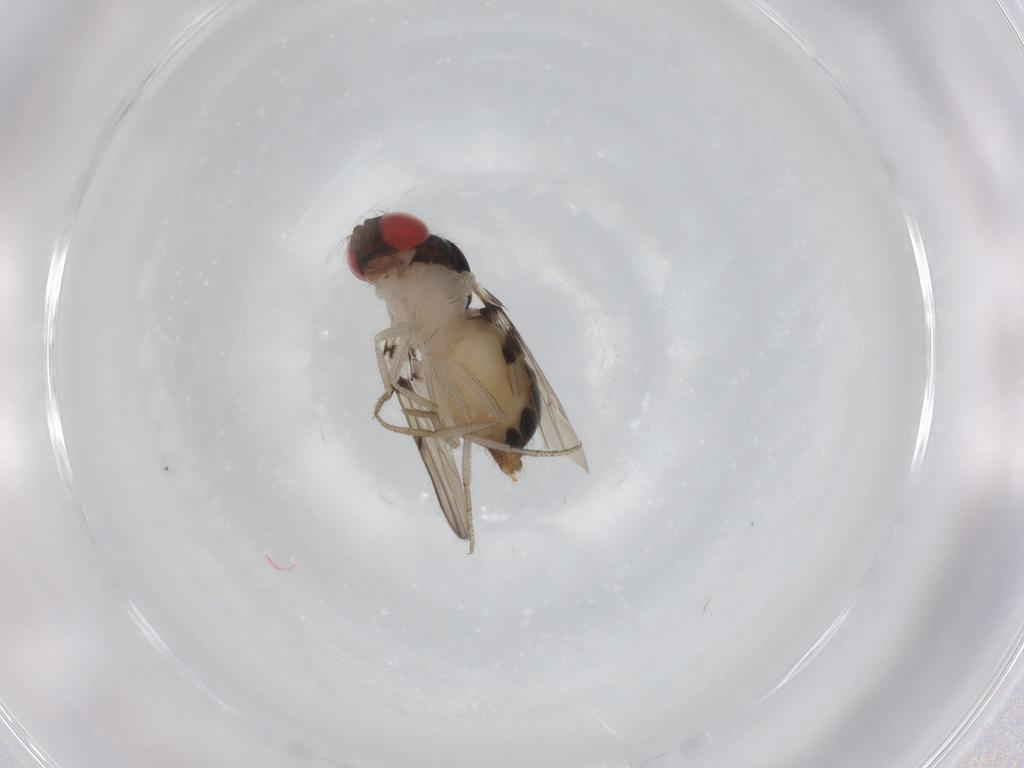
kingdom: Animalia
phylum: Arthropoda
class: Insecta
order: Diptera
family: Drosophilidae
